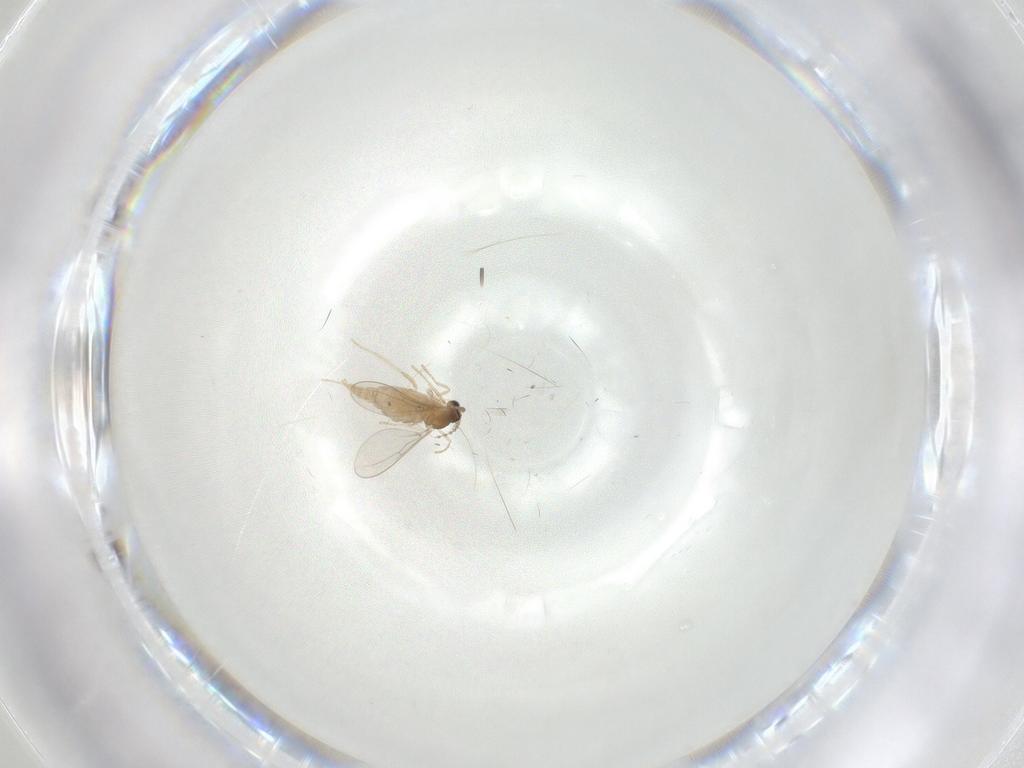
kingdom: Animalia
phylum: Arthropoda
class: Insecta
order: Diptera
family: Cecidomyiidae
